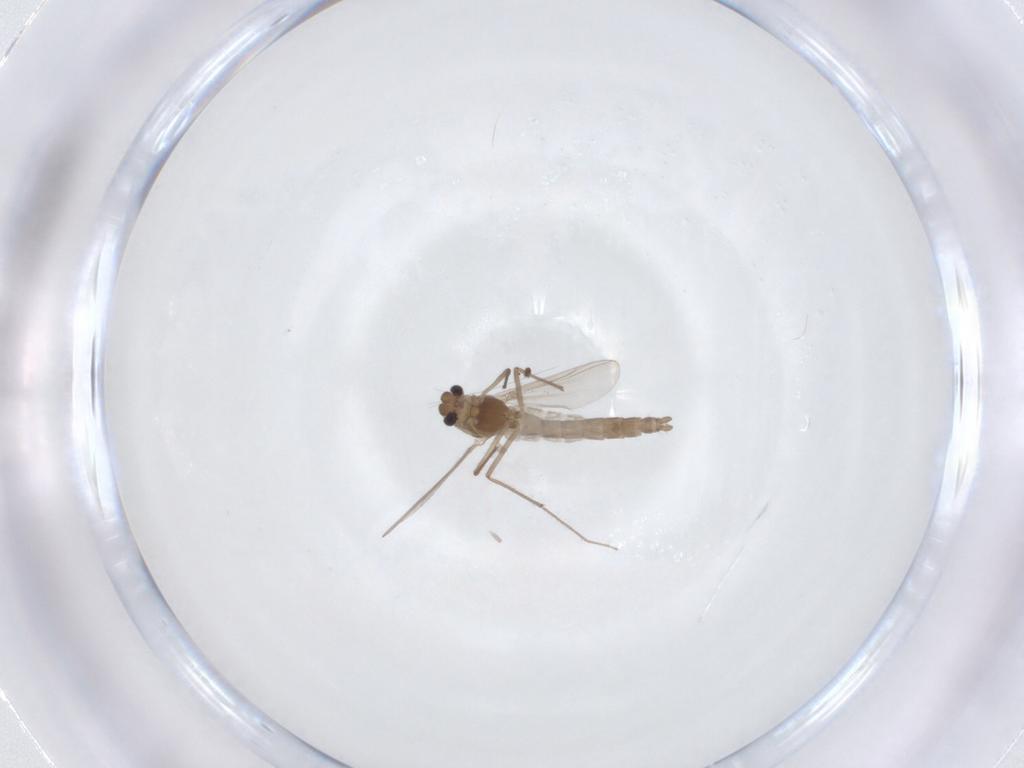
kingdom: Animalia
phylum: Arthropoda
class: Insecta
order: Diptera
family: Chironomidae
